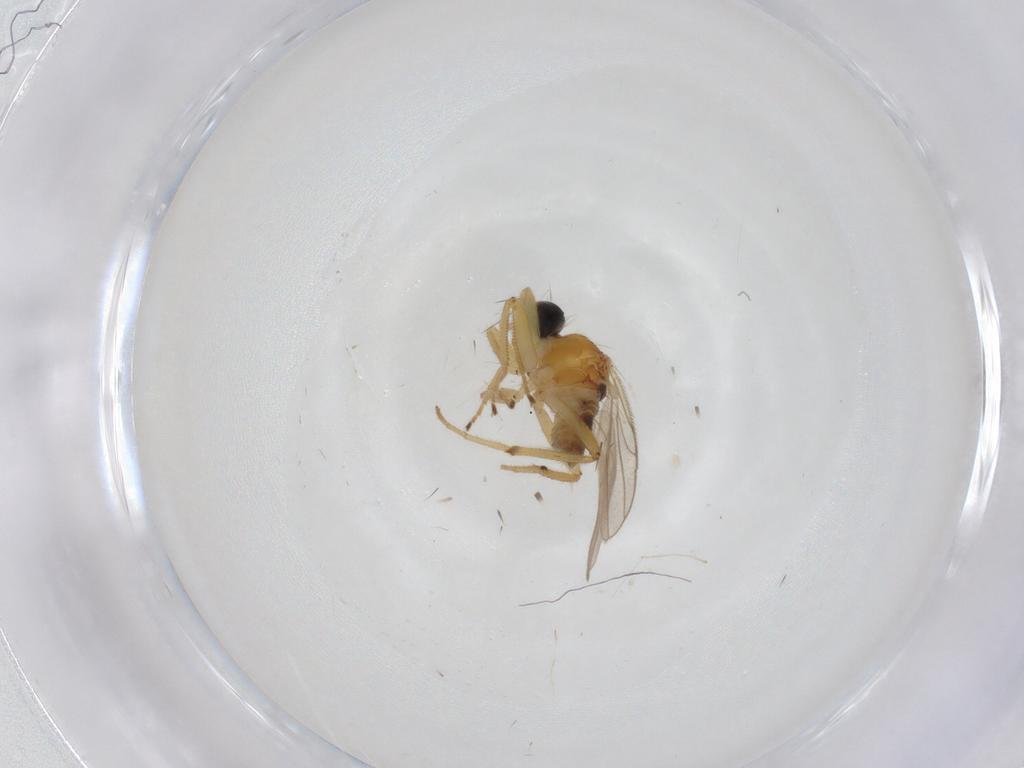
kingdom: Animalia
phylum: Arthropoda
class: Insecta
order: Diptera
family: Hybotidae
